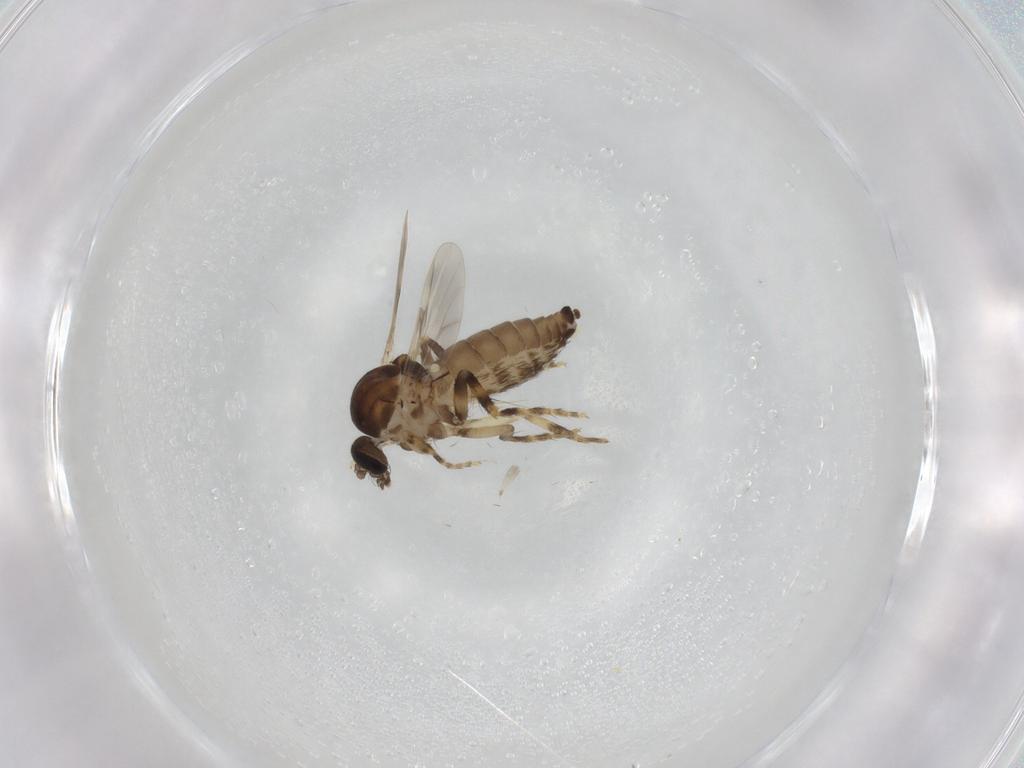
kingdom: Animalia
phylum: Arthropoda
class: Insecta
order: Diptera
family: Ceratopogonidae
